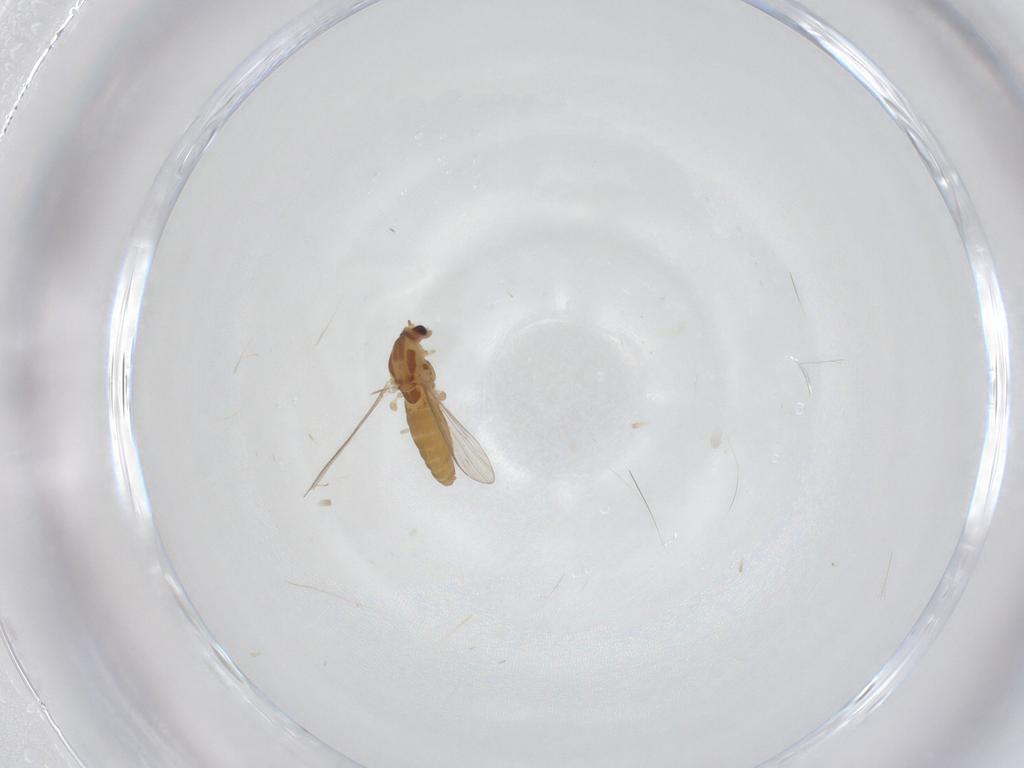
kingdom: Animalia
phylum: Arthropoda
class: Insecta
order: Diptera
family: Chironomidae
